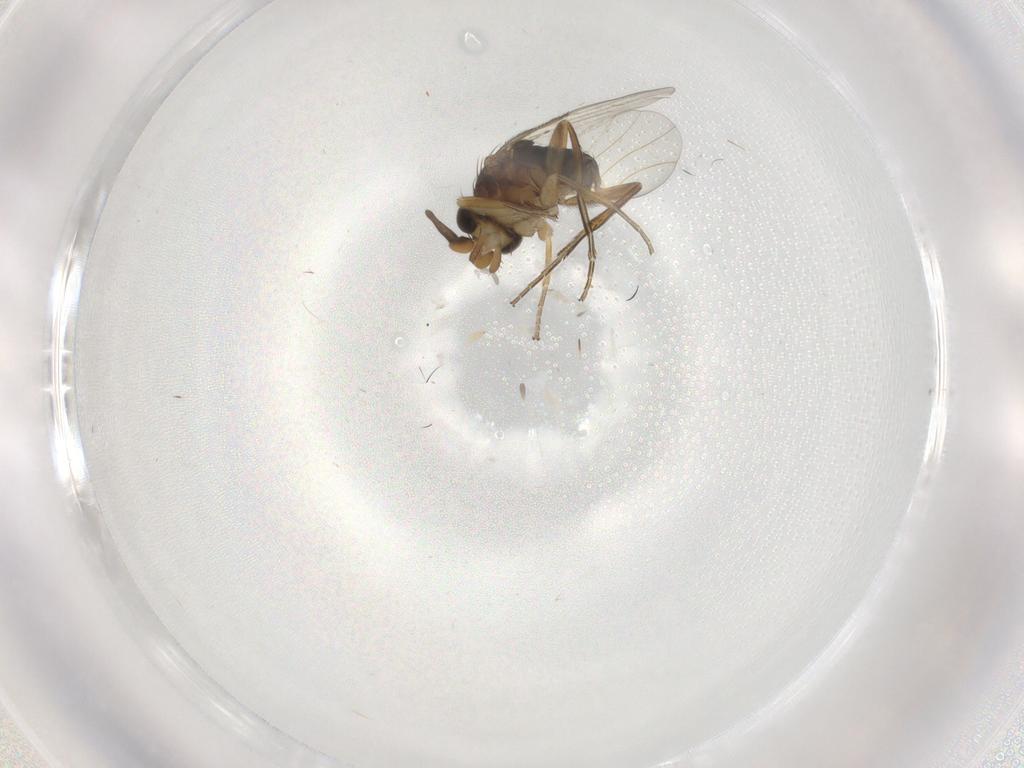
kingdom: Animalia
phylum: Arthropoda
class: Insecta
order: Diptera
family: Phoridae
